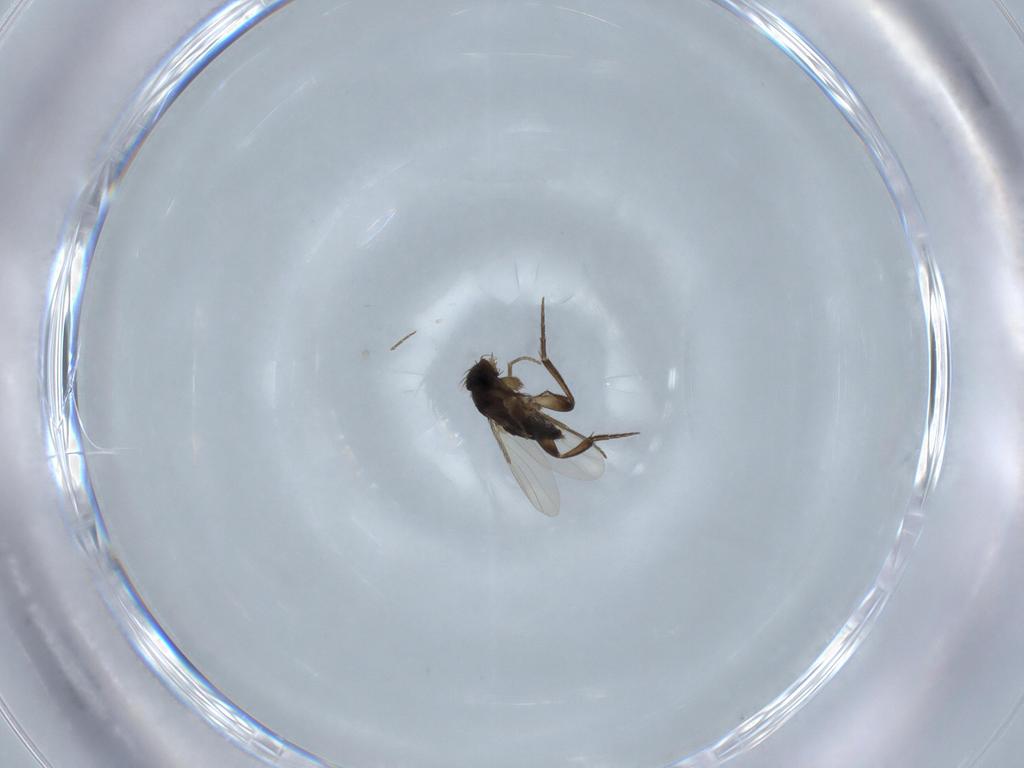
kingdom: Animalia
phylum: Arthropoda
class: Insecta
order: Diptera
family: Phoridae
